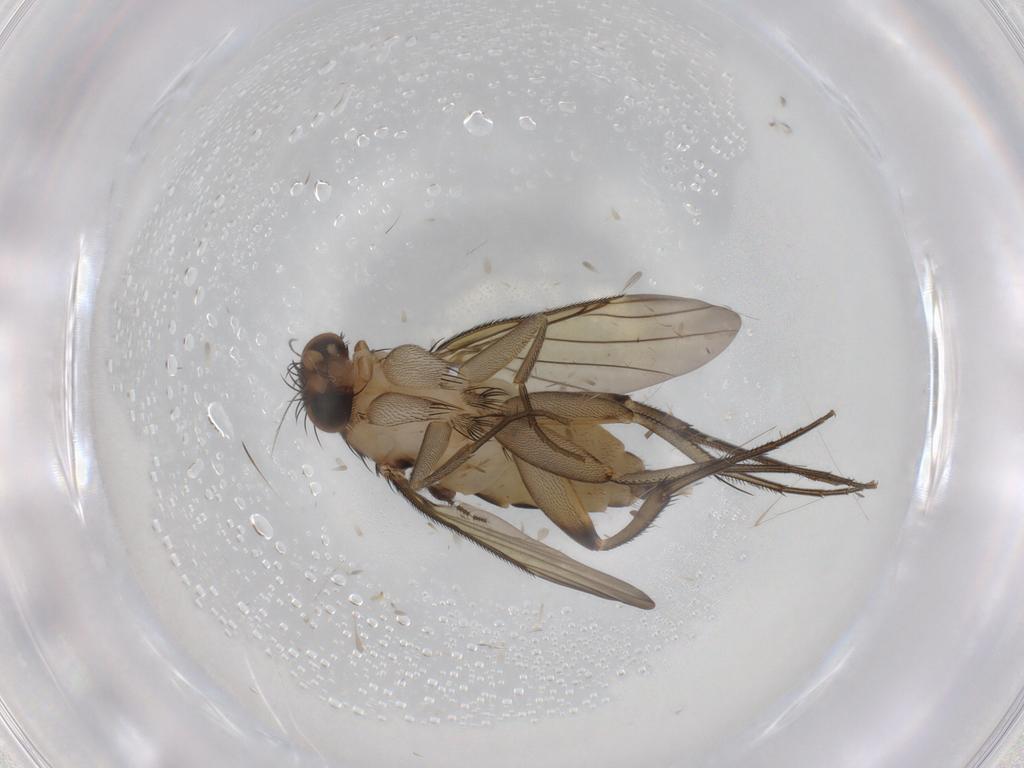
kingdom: Animalia
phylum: Arthropoda
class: Insecta
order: Diptera
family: Phoridae
